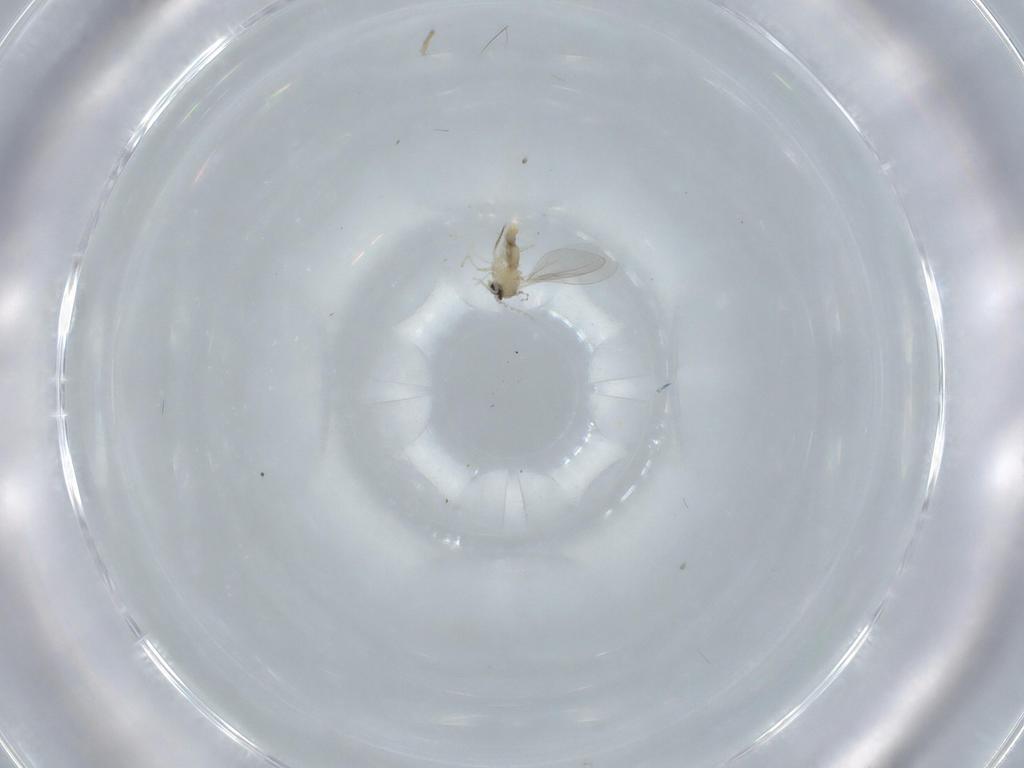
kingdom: Animalia
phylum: Arthropoda
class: Insecta
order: Diptera
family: Cecidomyiidae
